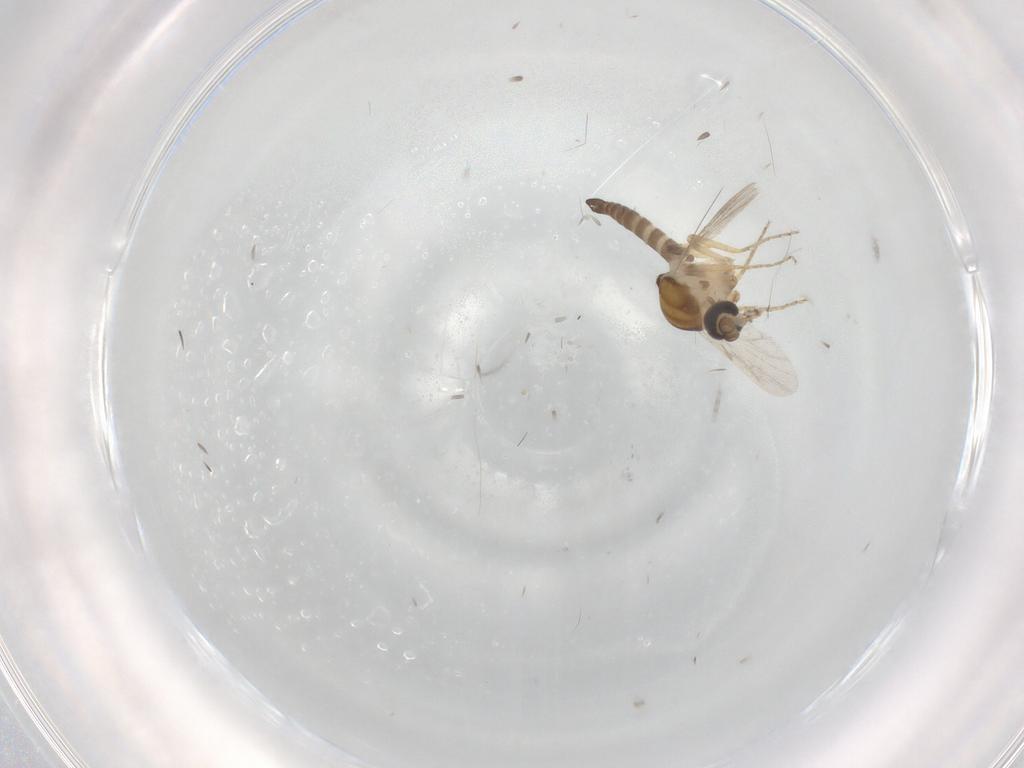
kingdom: Animalia
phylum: Arthropoda
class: Insecta
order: Diptera
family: Ceratopogonidae
